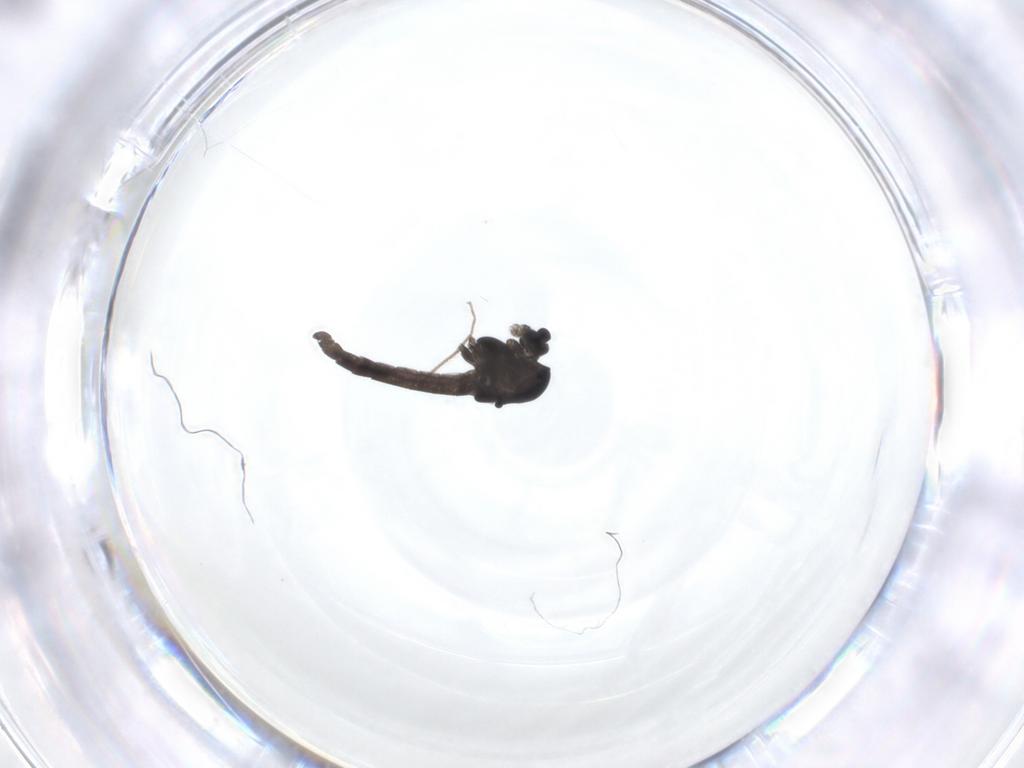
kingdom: Animalia
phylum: Arthropoda
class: Insecta
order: Diptera
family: Chironomidae
